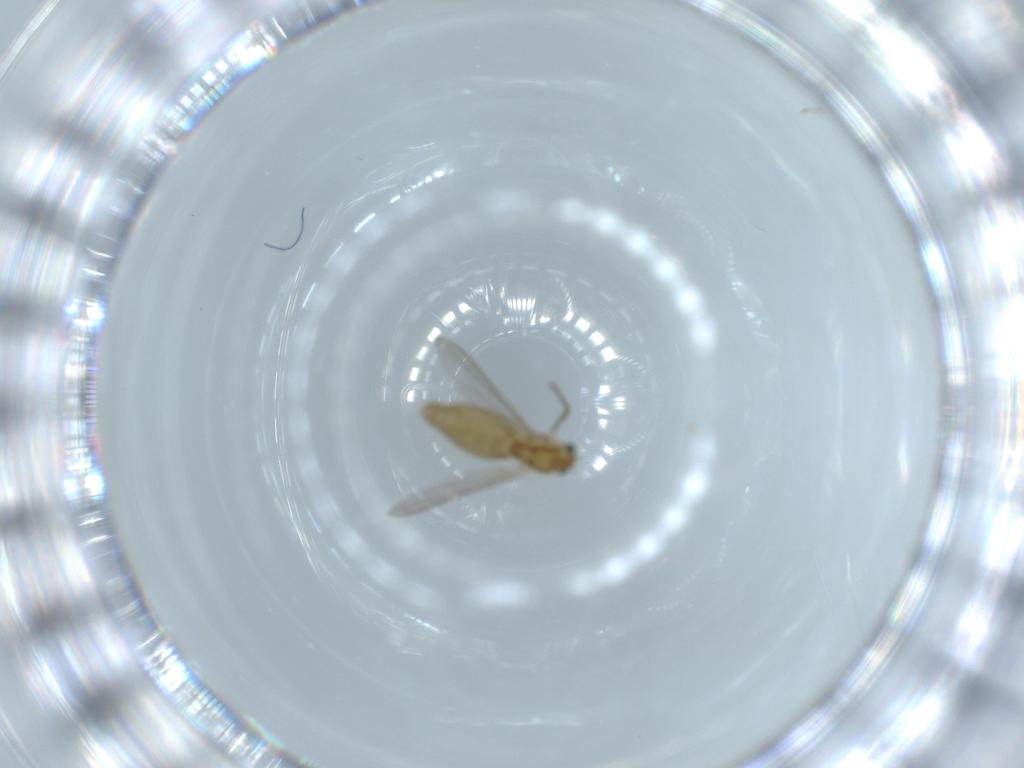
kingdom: Animalia
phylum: Arthropoda
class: Insecta
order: Diptera
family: Chironomidae
